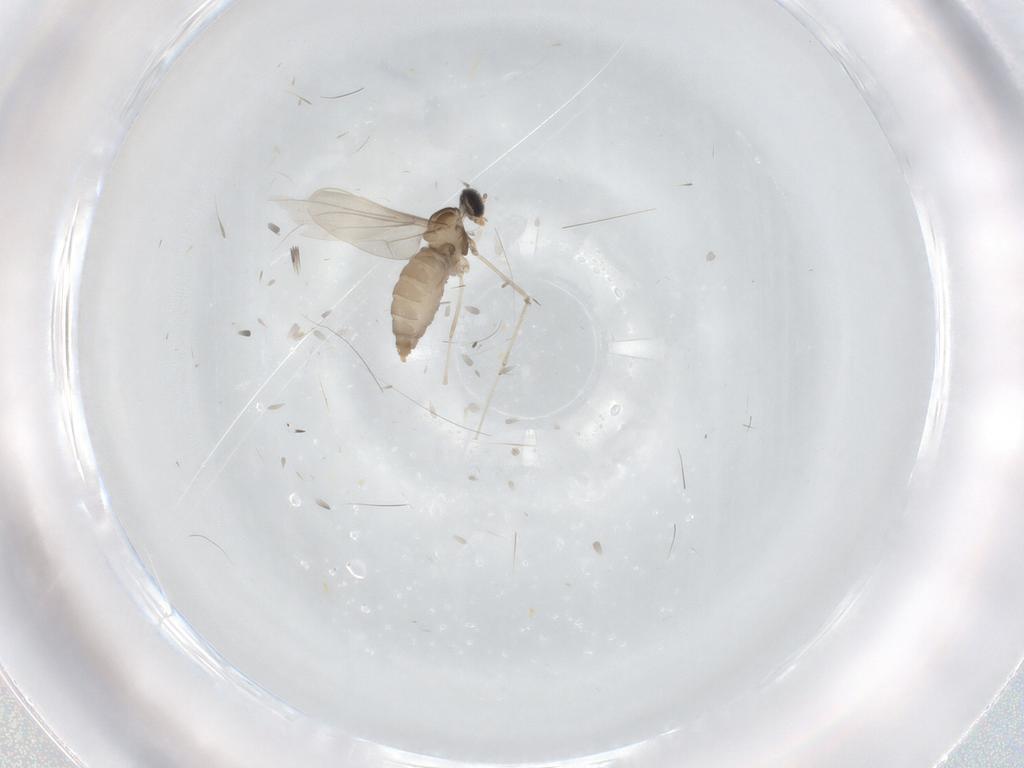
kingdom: Animalia
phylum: Arthropoda
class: Insecta
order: Diptera
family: Cecidomyiidae
